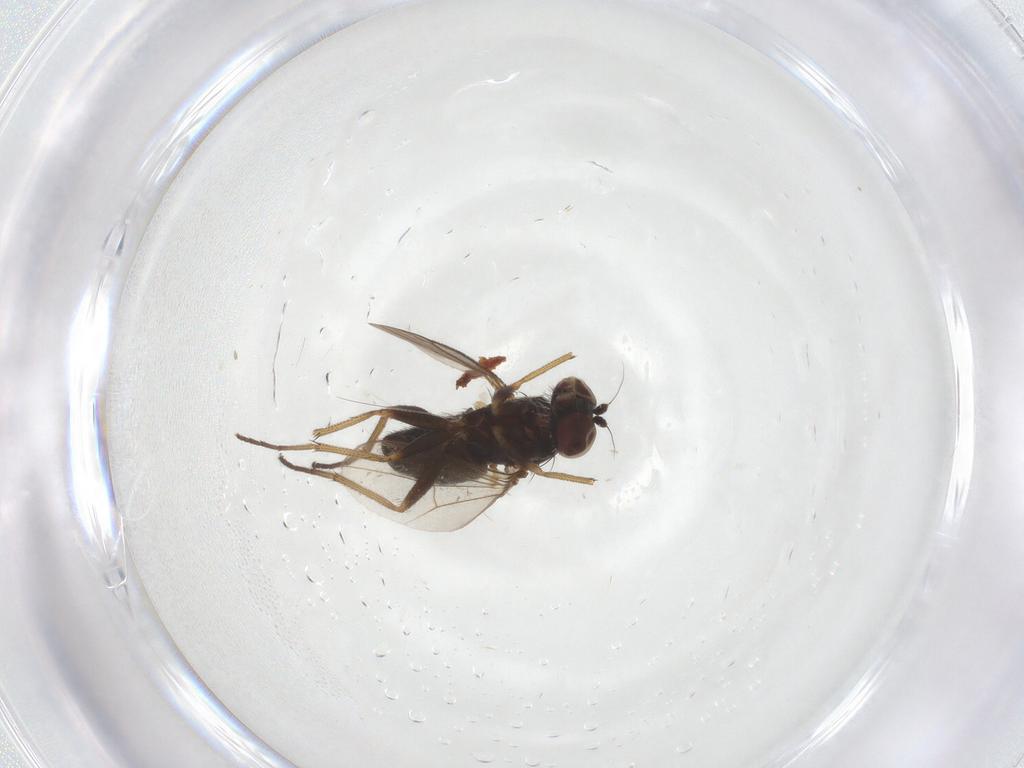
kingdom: Animalia
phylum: Arthropoda
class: Insecta
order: Diptera
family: Dolichopodidae
